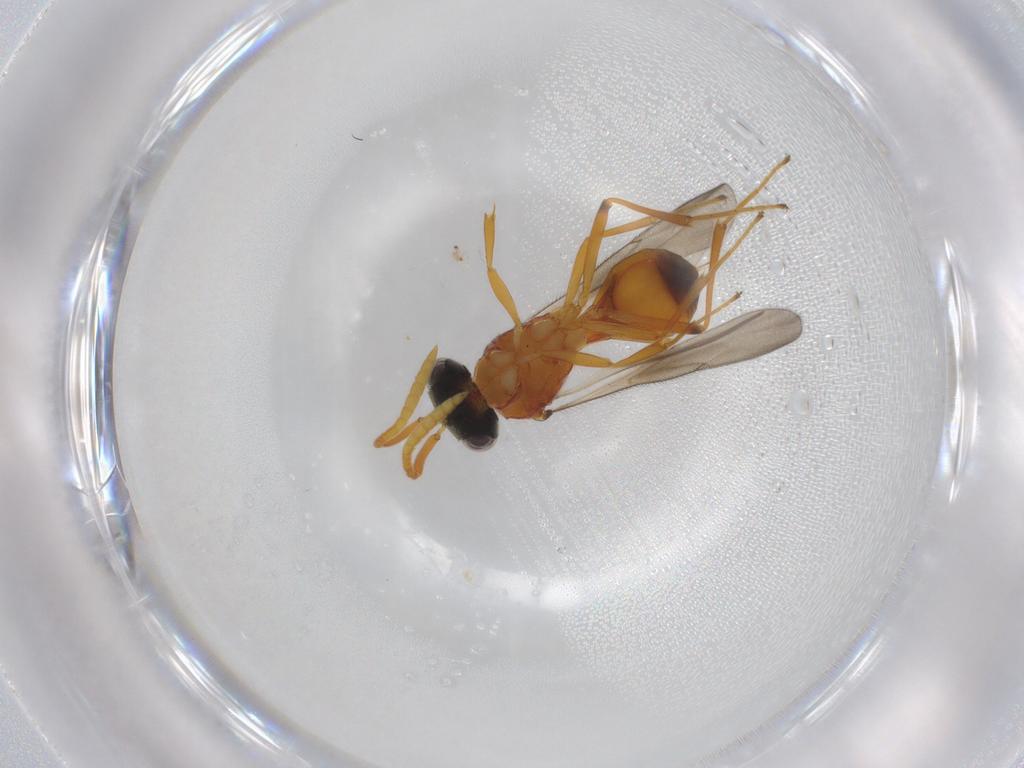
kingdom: Animalia
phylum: Arthropoda
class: Insecta
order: Hymenoptera
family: Scelionidae
